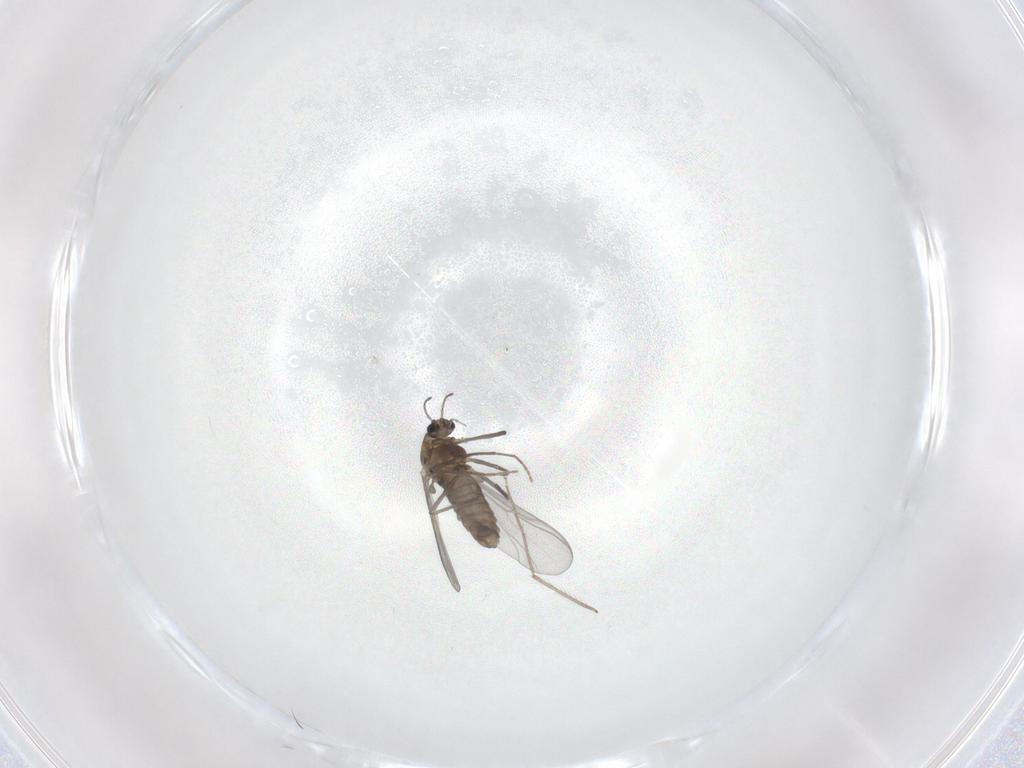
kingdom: Animalia
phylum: Arthropoda
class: Insecta
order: Diptera
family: Chironomidae
